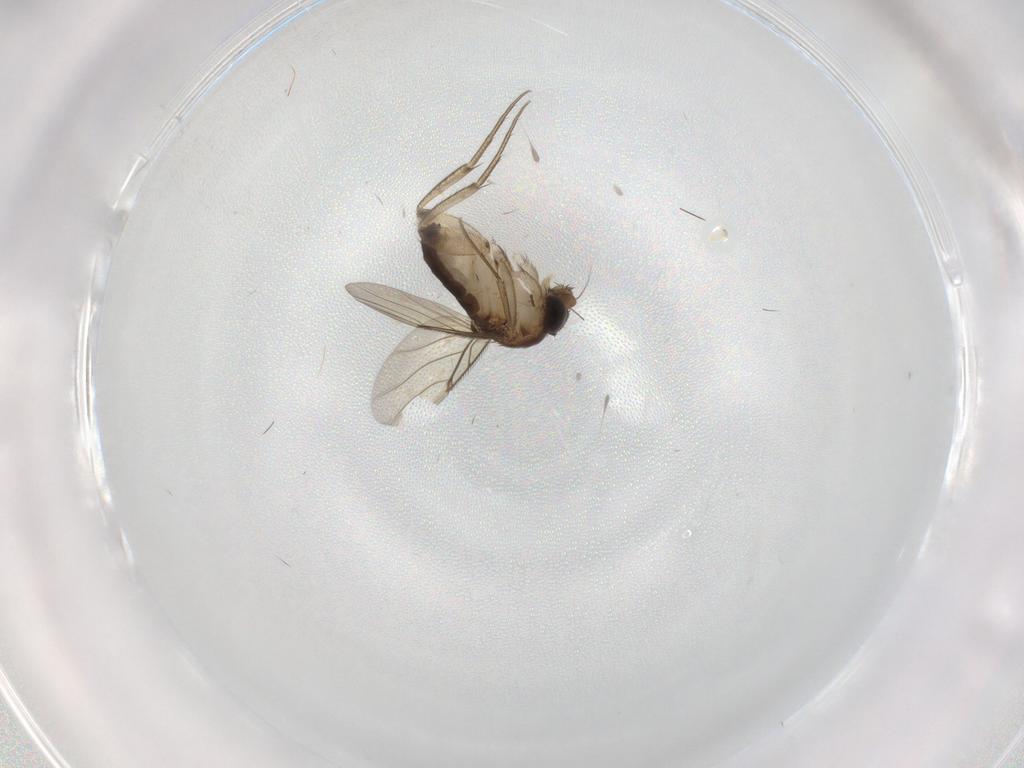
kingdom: Animalia
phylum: Arthropoda
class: Insecta
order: Diptera
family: Phoridae
